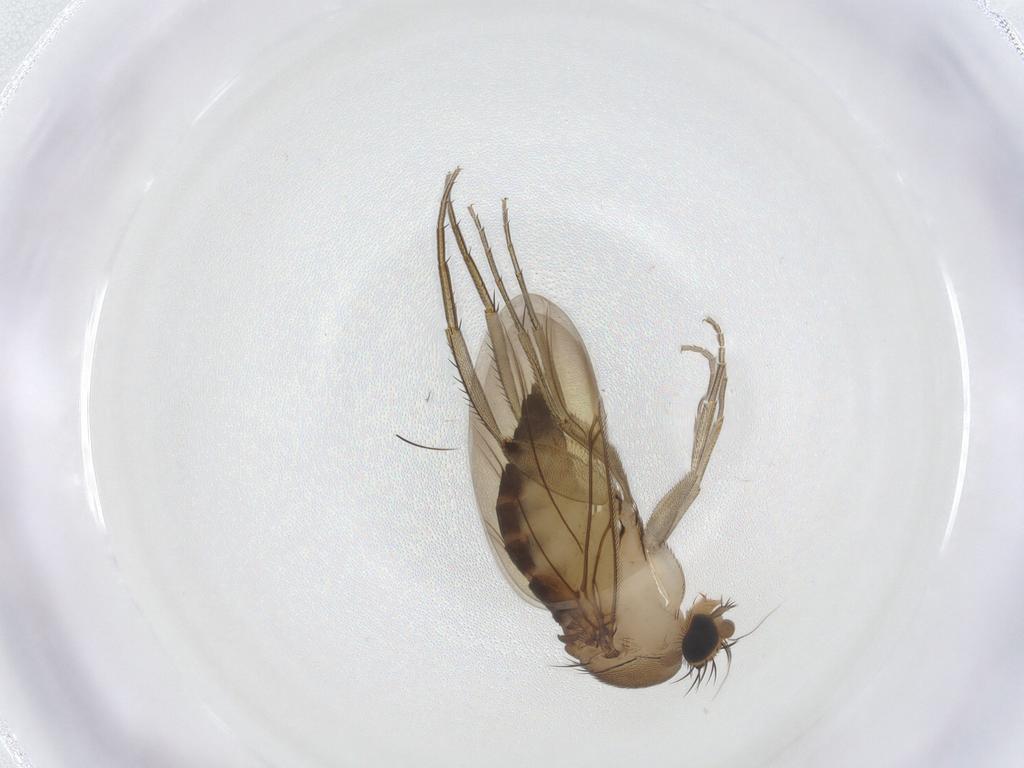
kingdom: Animalia
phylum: Arthropoda
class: Insecta
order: Diptera
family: Phoridae
